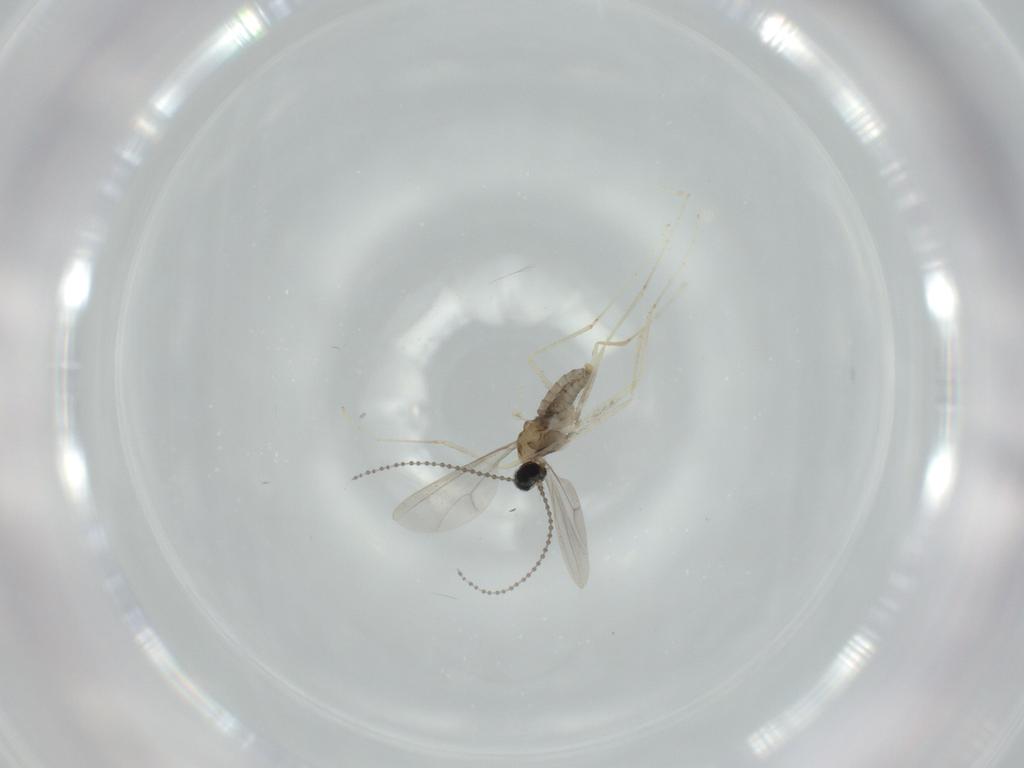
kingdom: Animalia
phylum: Arthropoda
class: Insecta
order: Diptera
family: Cecidomyiidae
